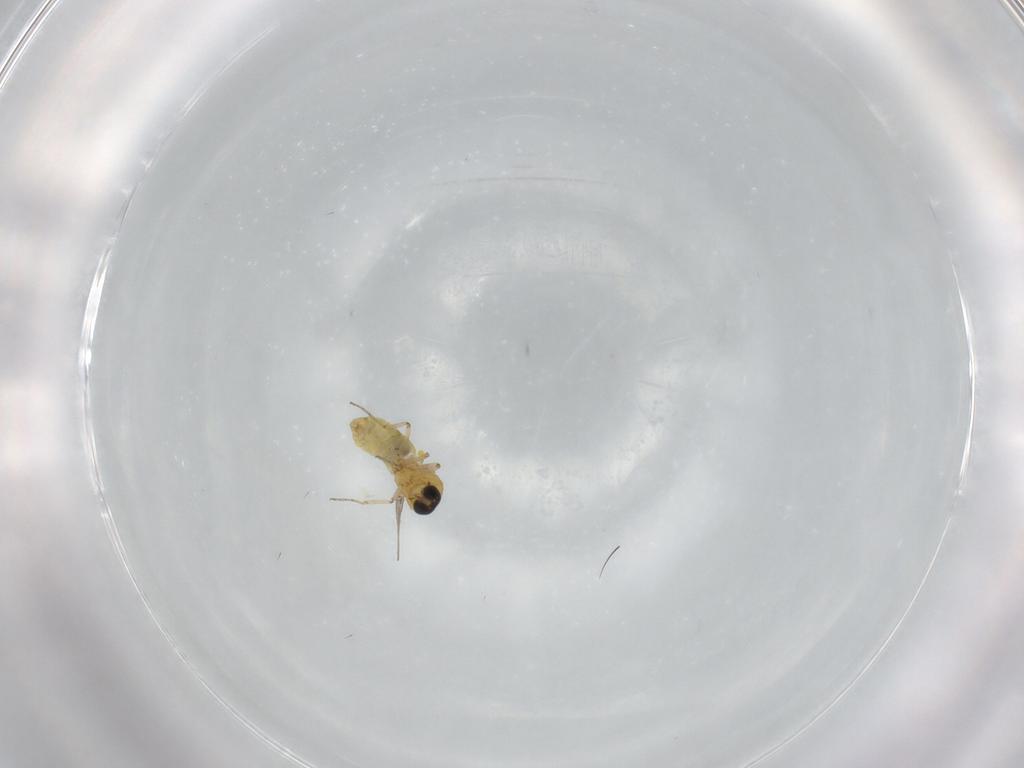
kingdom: Animalia
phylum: Arthropoda
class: Insecta
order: Diptera
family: Ceratopogonidae
